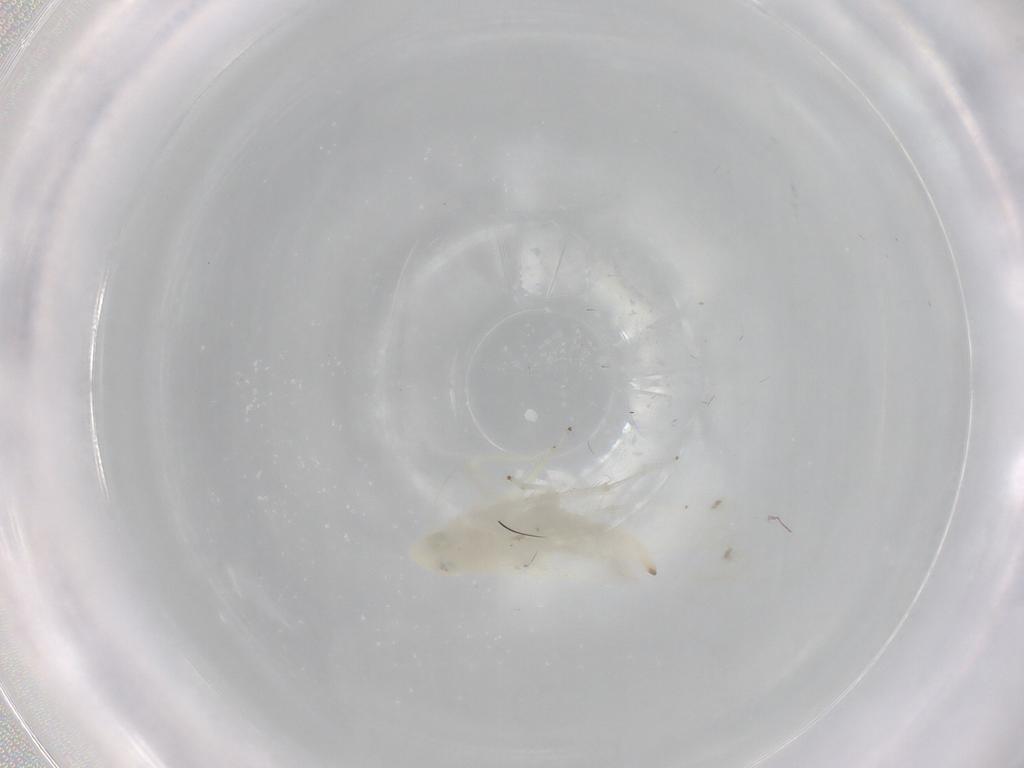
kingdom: Animalia
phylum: Arthropoda
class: Insecta
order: Hemiptera
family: Cicadellidae
